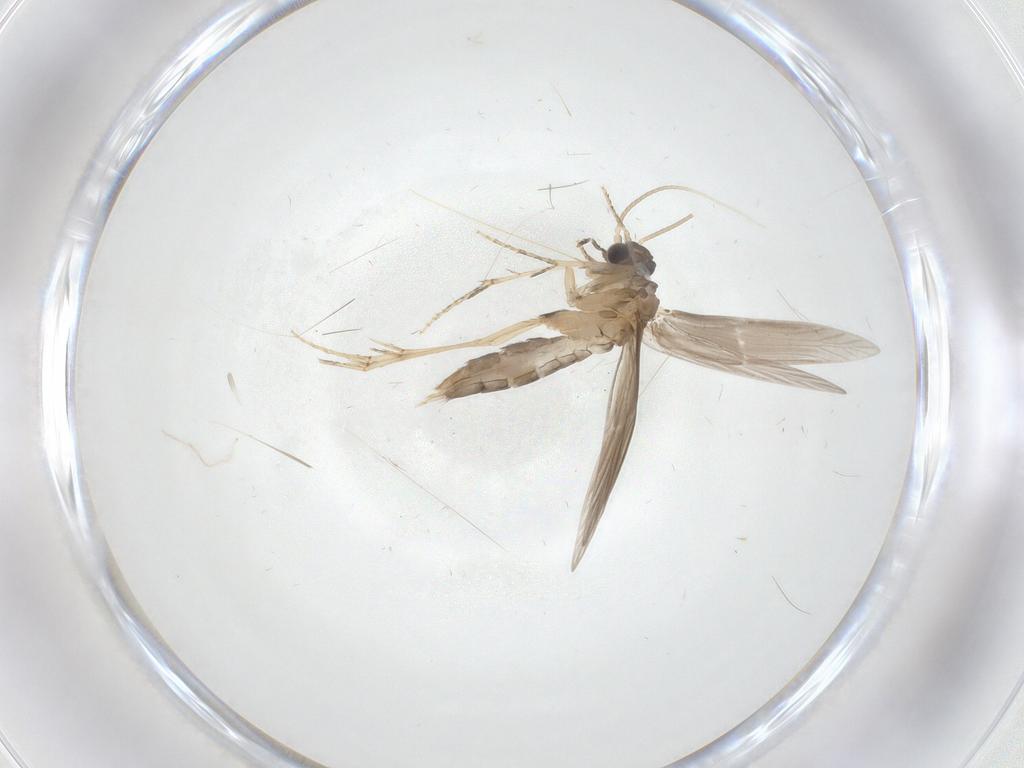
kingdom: Animalia
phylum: Arthropoda
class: Insecta
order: Trichoptera
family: Hydroptilidae
